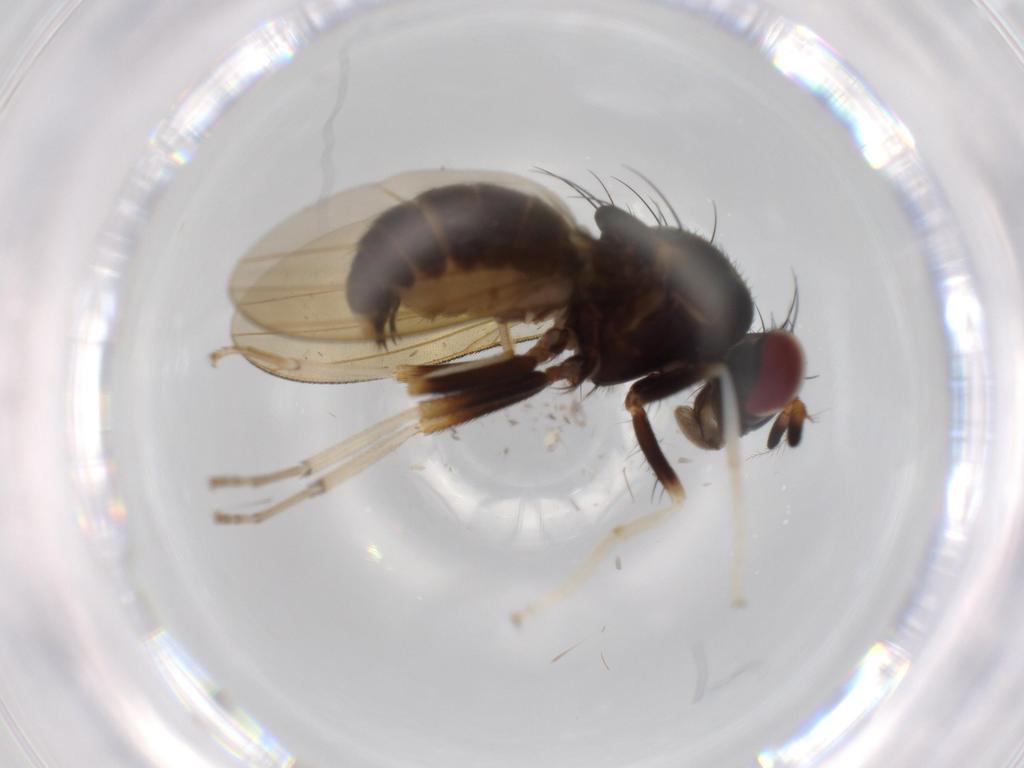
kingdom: Animalia
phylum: Arthropoda
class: Insecta
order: Diptera
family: Lauxaniidae
